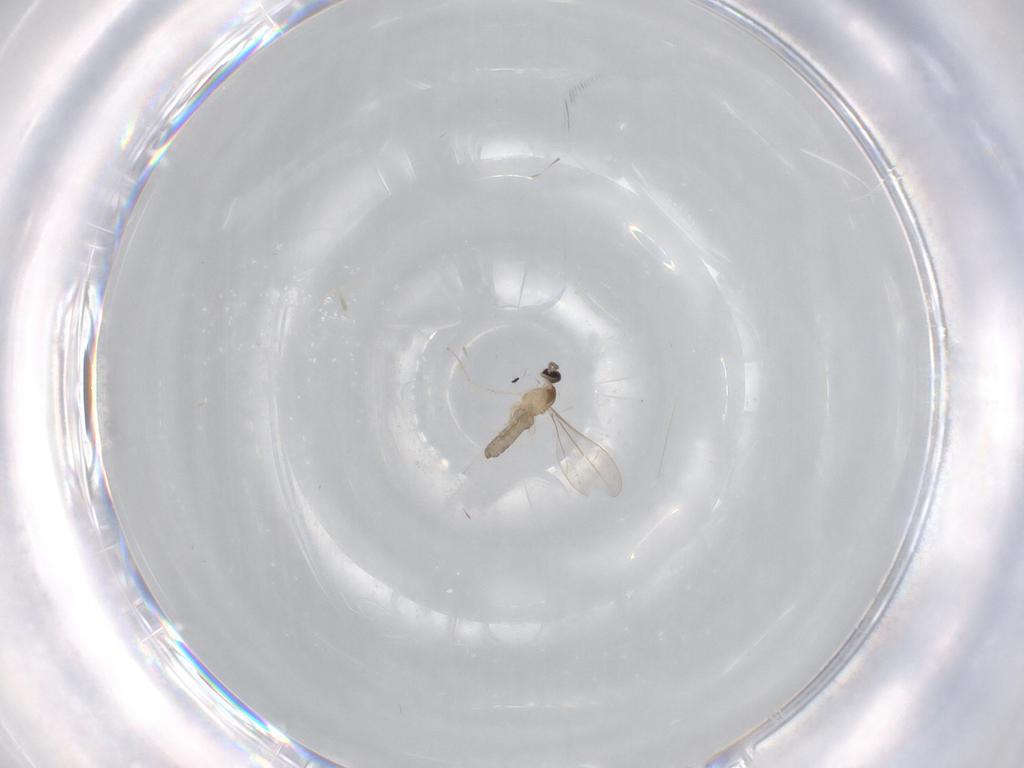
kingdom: Animalia
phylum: Arthropoda
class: Insecta
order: Diptera
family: Cecidomyiidae
